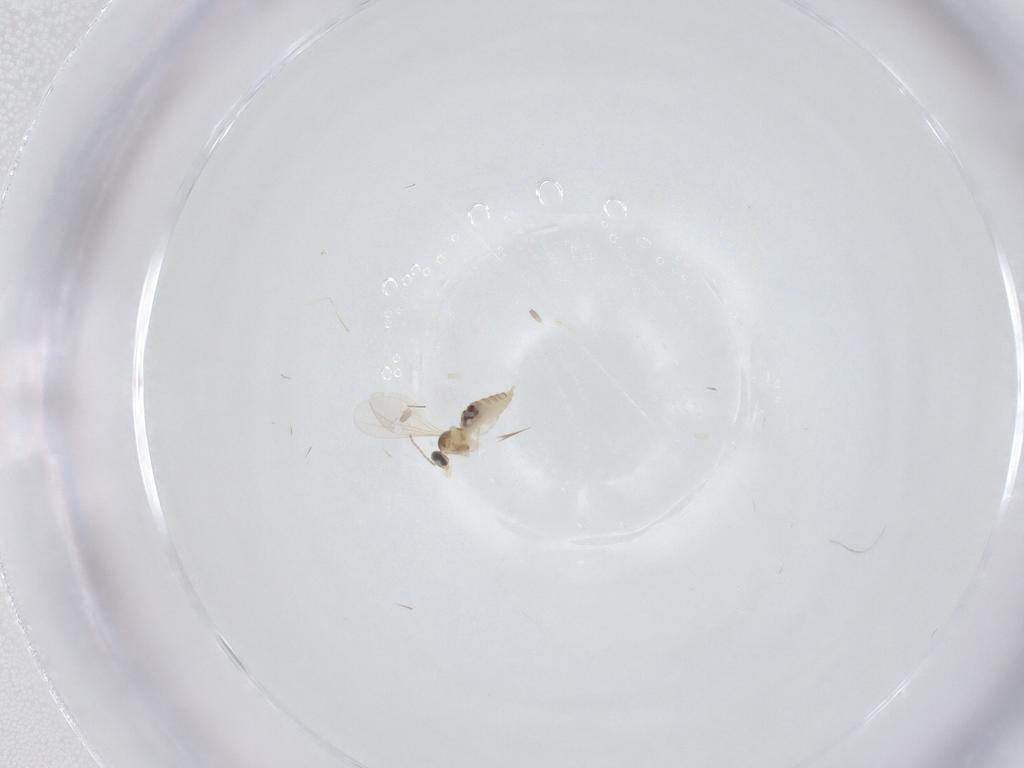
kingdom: Animalia
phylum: Arthropoda
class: Insecta
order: Diptera
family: Cecidomyiidae
